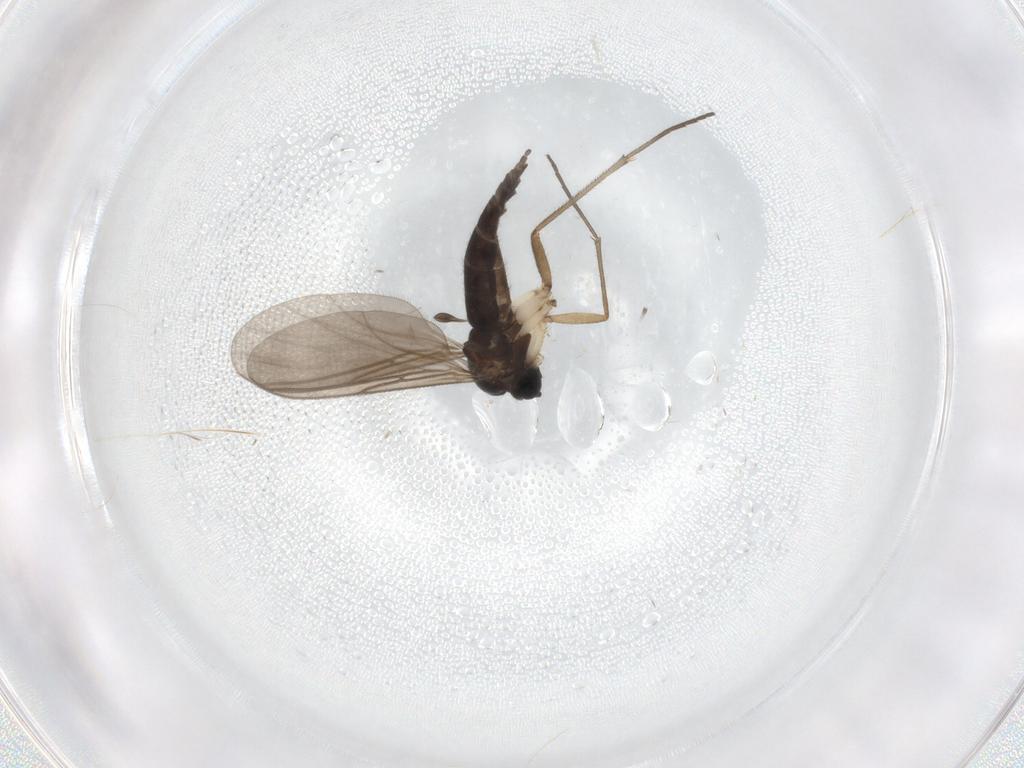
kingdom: Animalia
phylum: Arthropoda
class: Insecta
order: Diptera
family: Sciaridae
